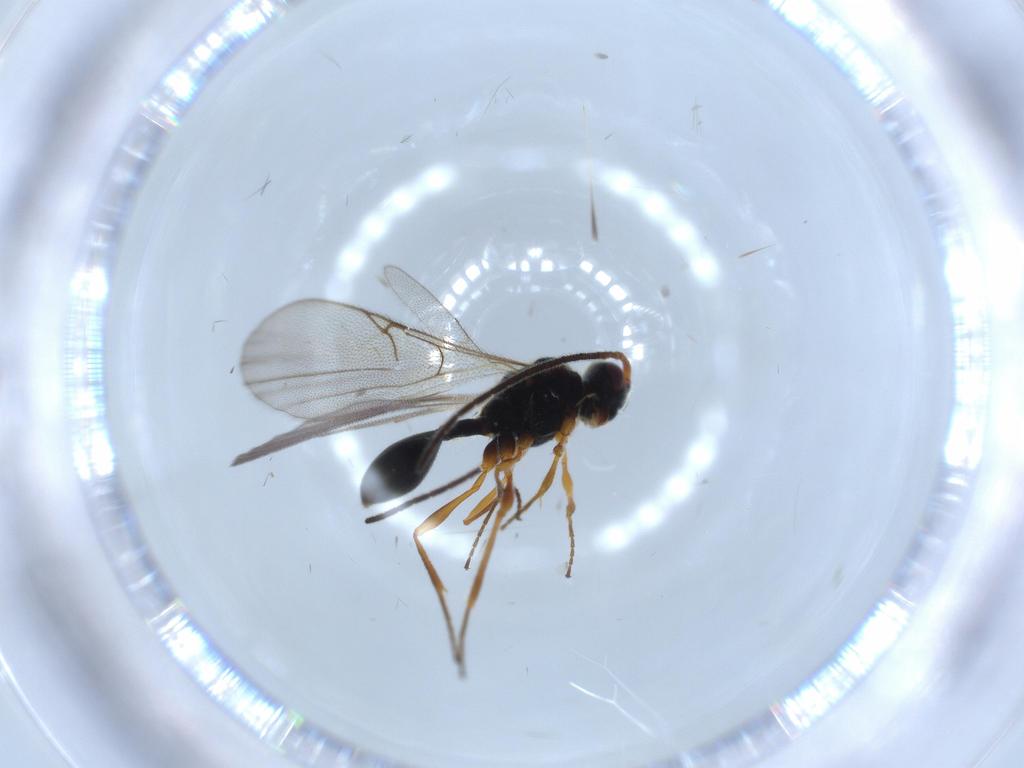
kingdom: Animalia
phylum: Arthropoda
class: Insecta
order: Hymenoptera
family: Diapriidae
